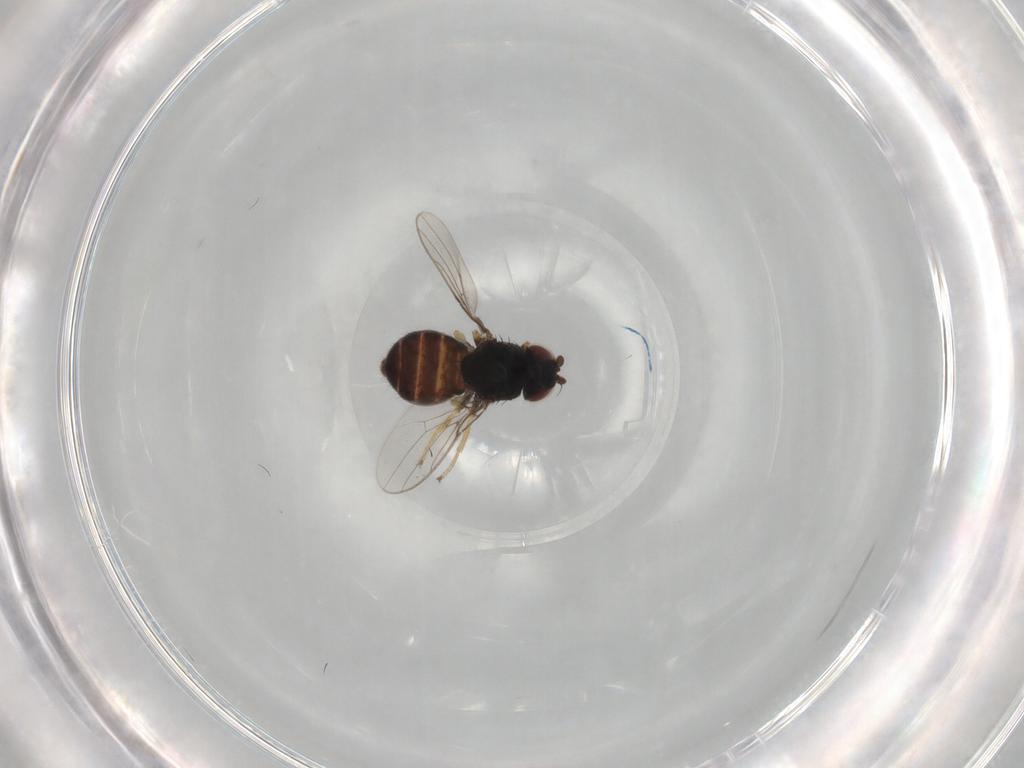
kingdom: Animalia
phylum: Arthropoda
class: Insecta
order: Diptera
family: Chloropidae
